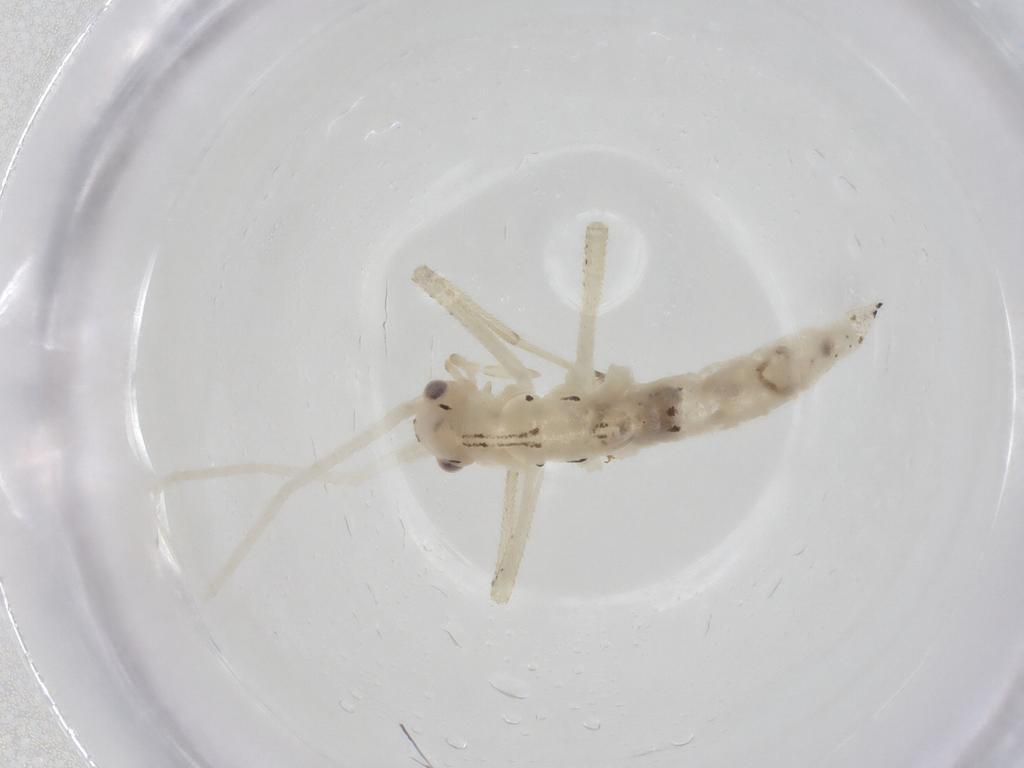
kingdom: Animalia
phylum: Arthropoda
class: Insecta
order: Orthoptera
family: Oecanthidae
